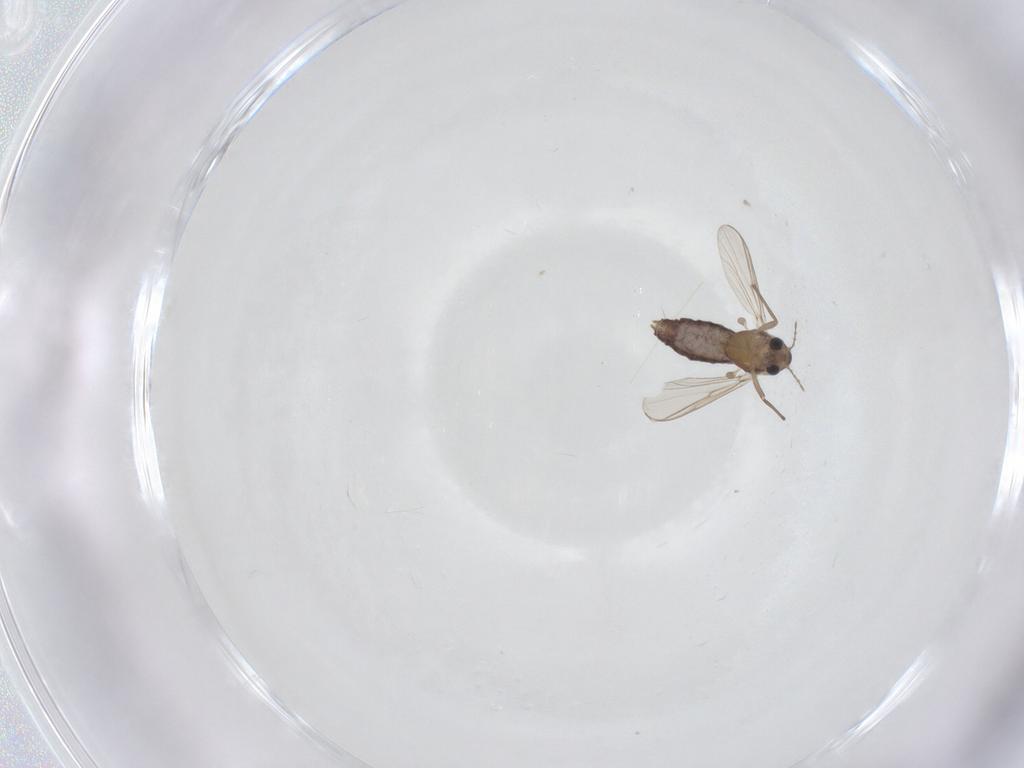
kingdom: Animalia
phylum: Arthropoda
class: Insecta
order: Diptera
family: Chironomidae
